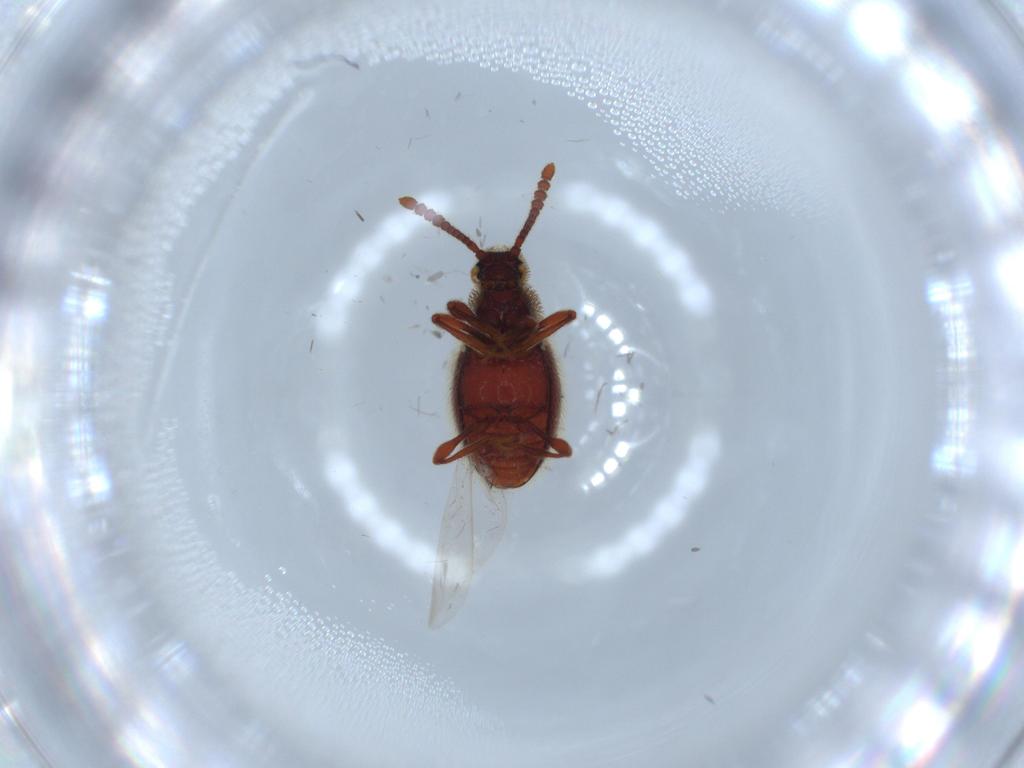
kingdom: Animalia
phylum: Arthropoda
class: Insecta
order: Coleoptera
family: Staphylinidae
